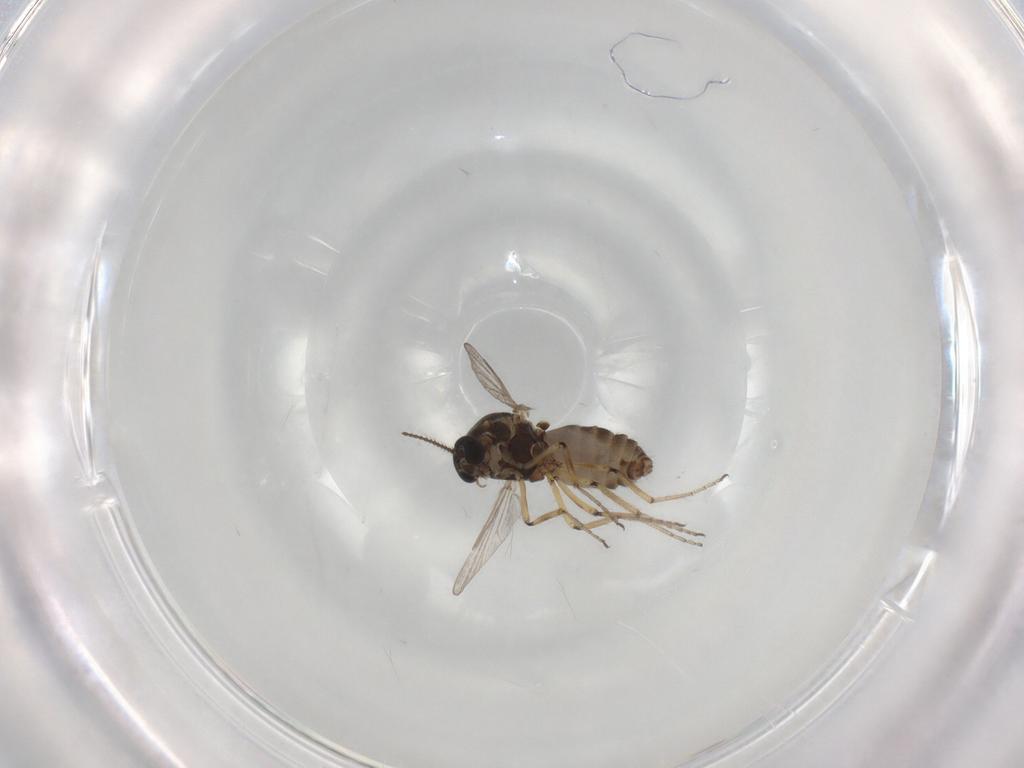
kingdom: Animalia
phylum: Arthropoda
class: Insecta
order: Diptera
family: Ceratopogonidae
